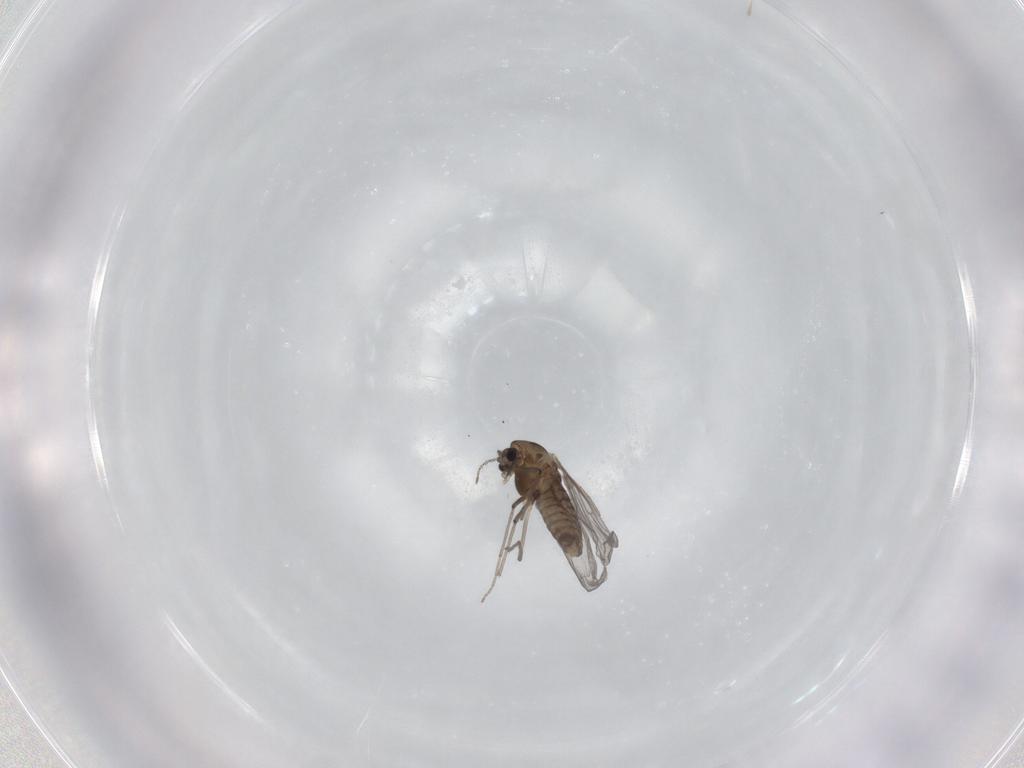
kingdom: Animalia
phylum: Arthropoda
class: Insecta
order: Diptera
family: Chironomidae
